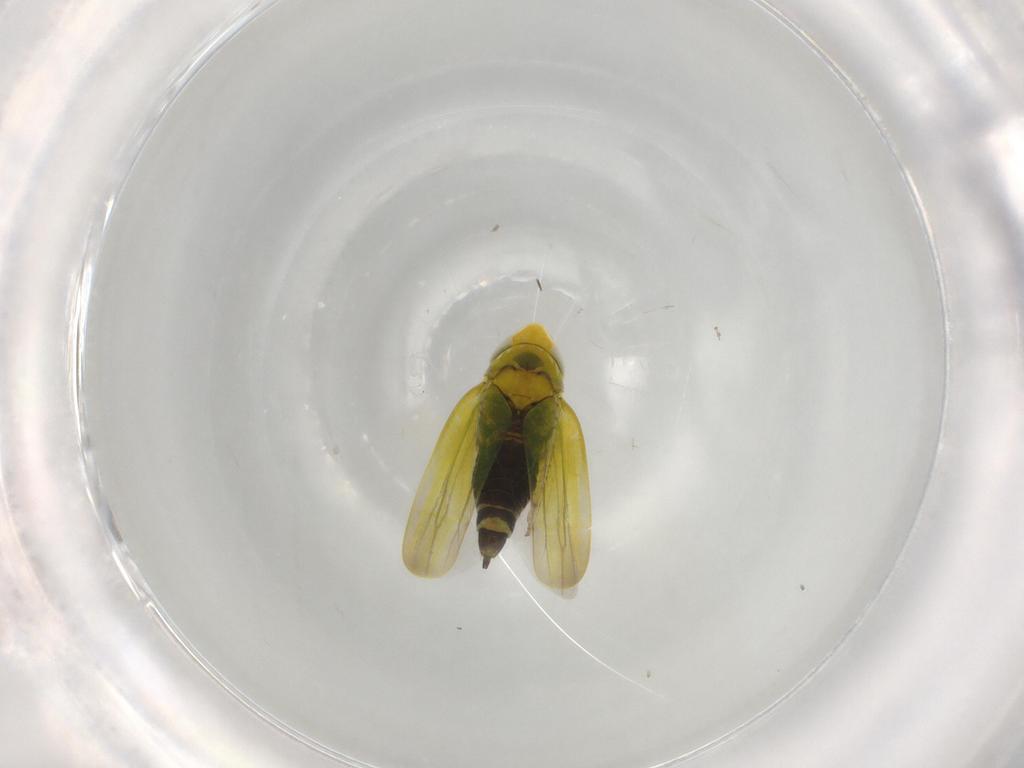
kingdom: Animalia
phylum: Arthropoda
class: Insecta
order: Hemiptera
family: Cicadellidae
